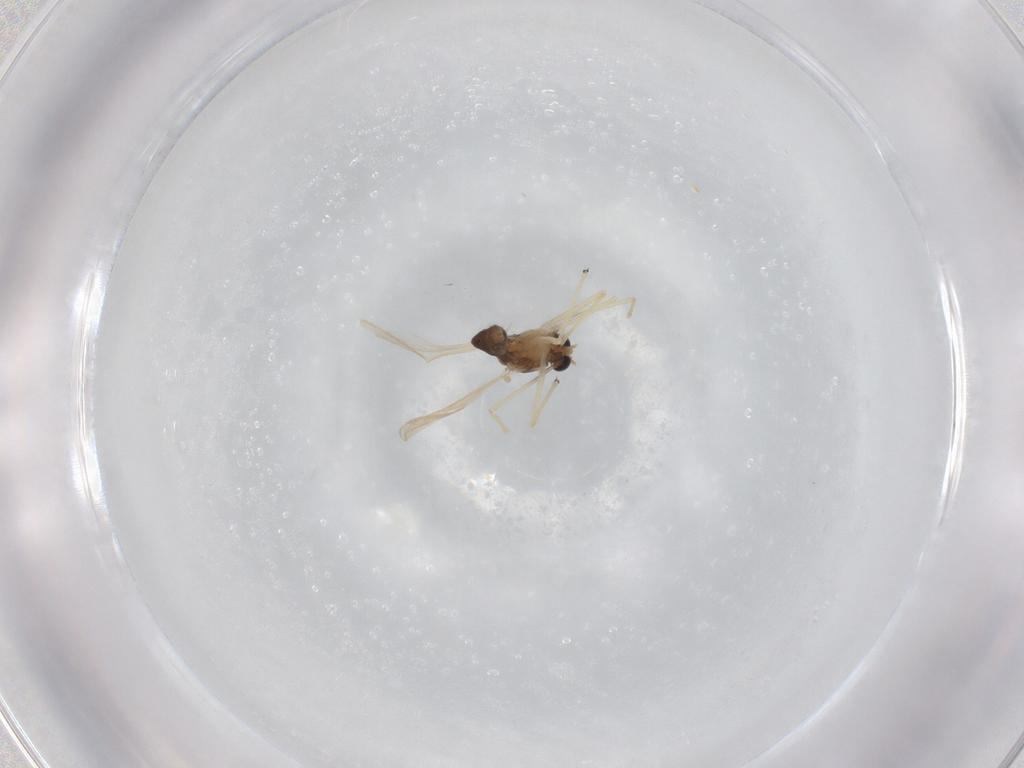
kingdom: Animalia
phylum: Arthropoda
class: Insecta
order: Diptera
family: Chironomidae
